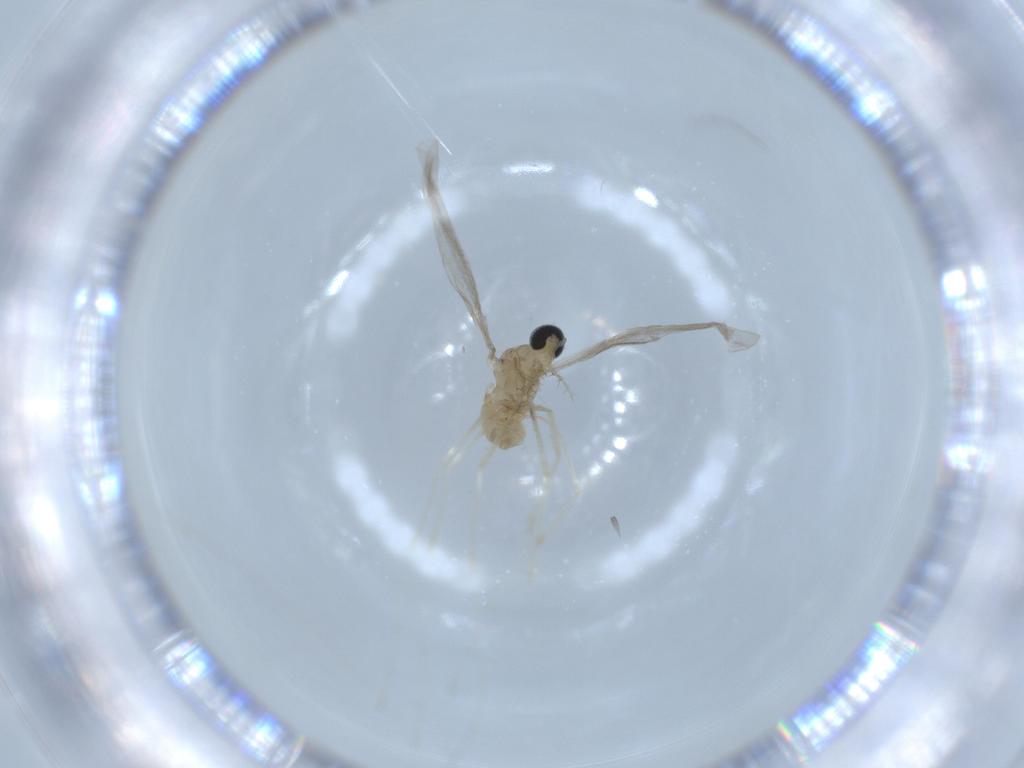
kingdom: Animalia
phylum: Arthropoda
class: Insecta
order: Diptera
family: Cecidomyiidae
